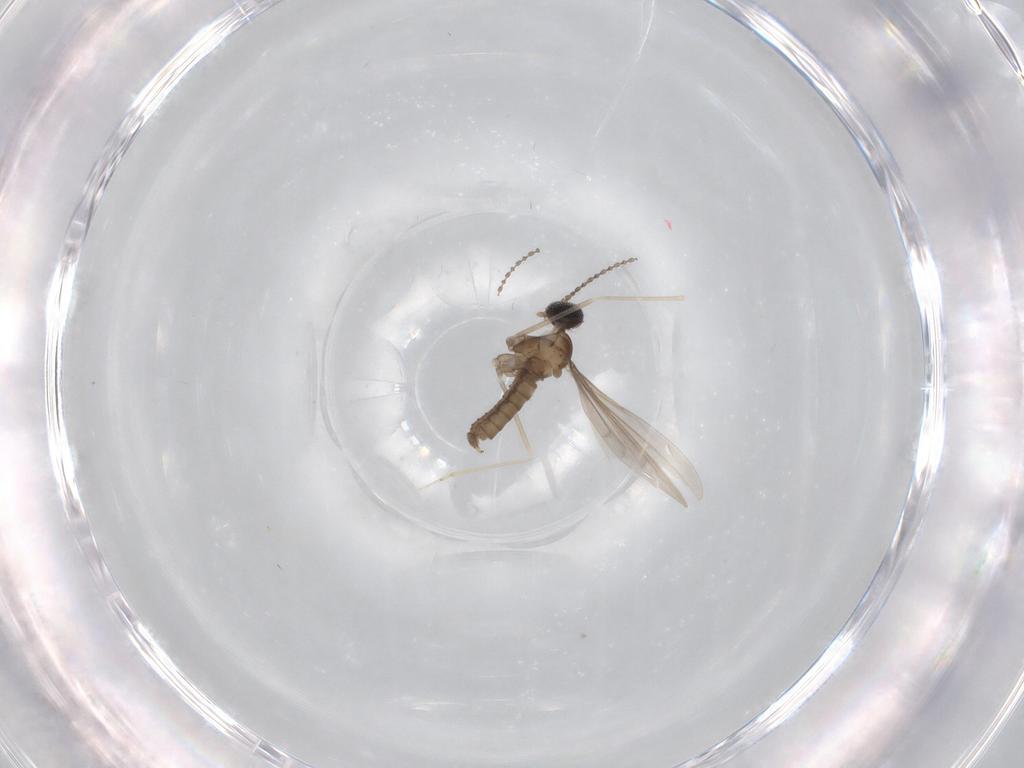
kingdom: Animalia
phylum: Arthropoda
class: Insecta
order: Diptera
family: Cecidomyiidae
